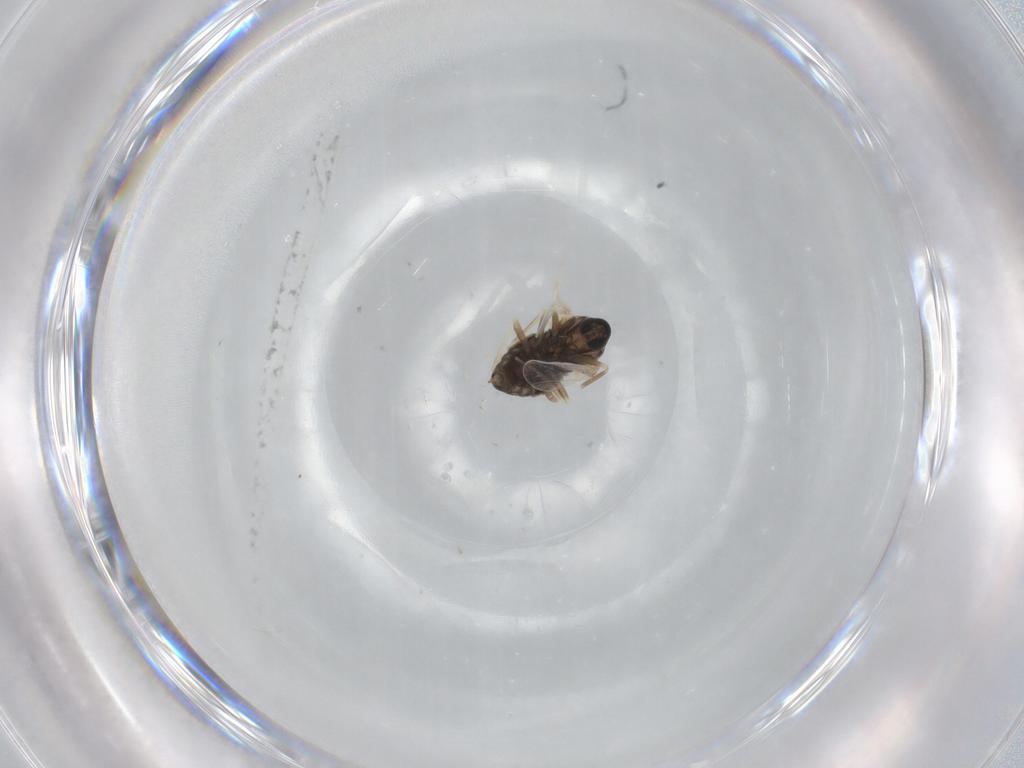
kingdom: Animalia
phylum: Arthropoda
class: Insecta
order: Diptera
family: Cecidomyiidae
